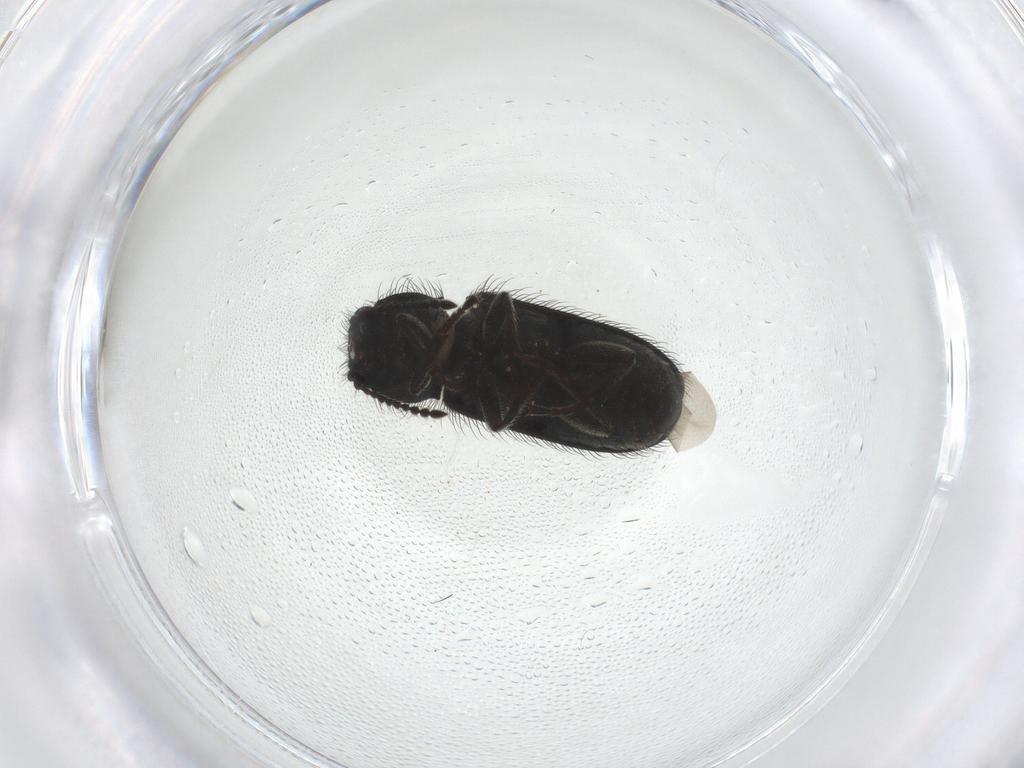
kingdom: Animalia
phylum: Arthropoda
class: Insecta
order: Coleoptera
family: Melyridae
